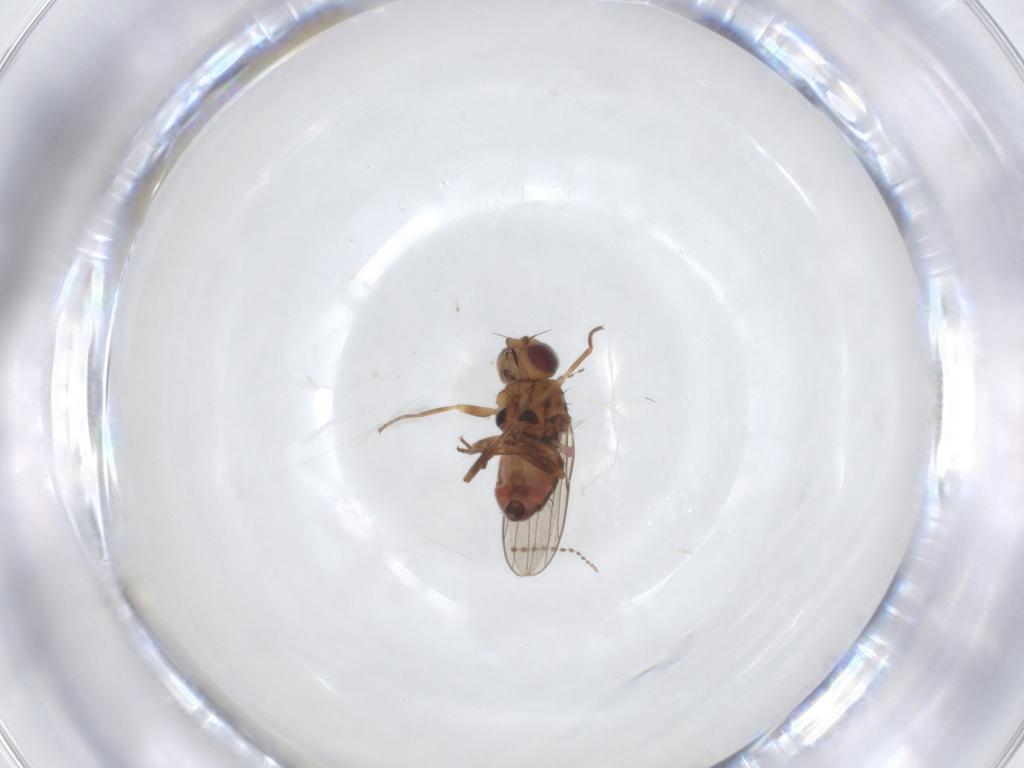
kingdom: Animalia
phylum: Arthropoda
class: Insecta
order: Diptera
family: Chloropidae
